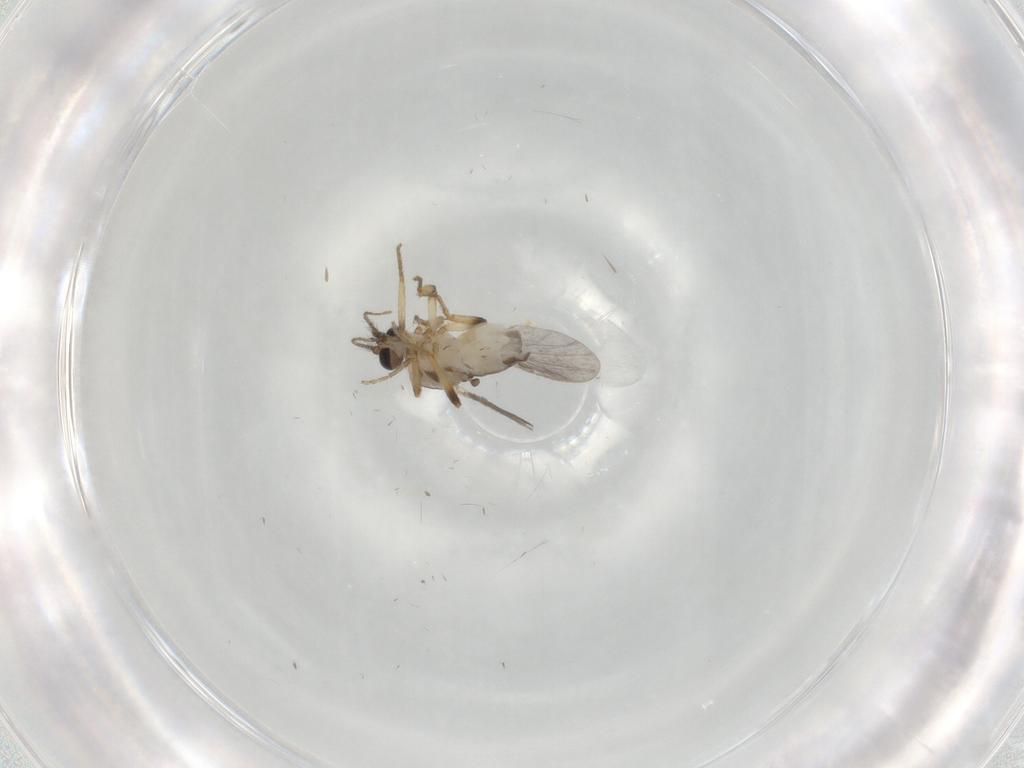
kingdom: Animalia
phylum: Arthropoda
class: Insecta
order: Diptera
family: Ceratopogonidae
